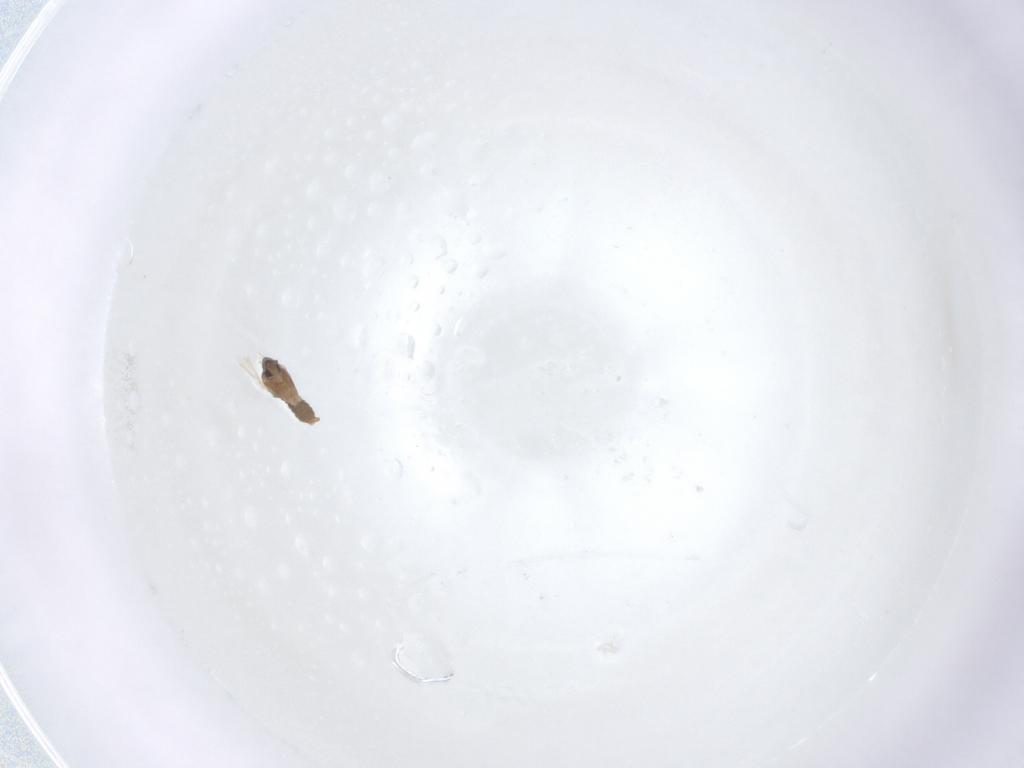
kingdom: Animalia
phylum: Arthropoda
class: Insecta
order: Diptera
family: Cecidomyiidae
